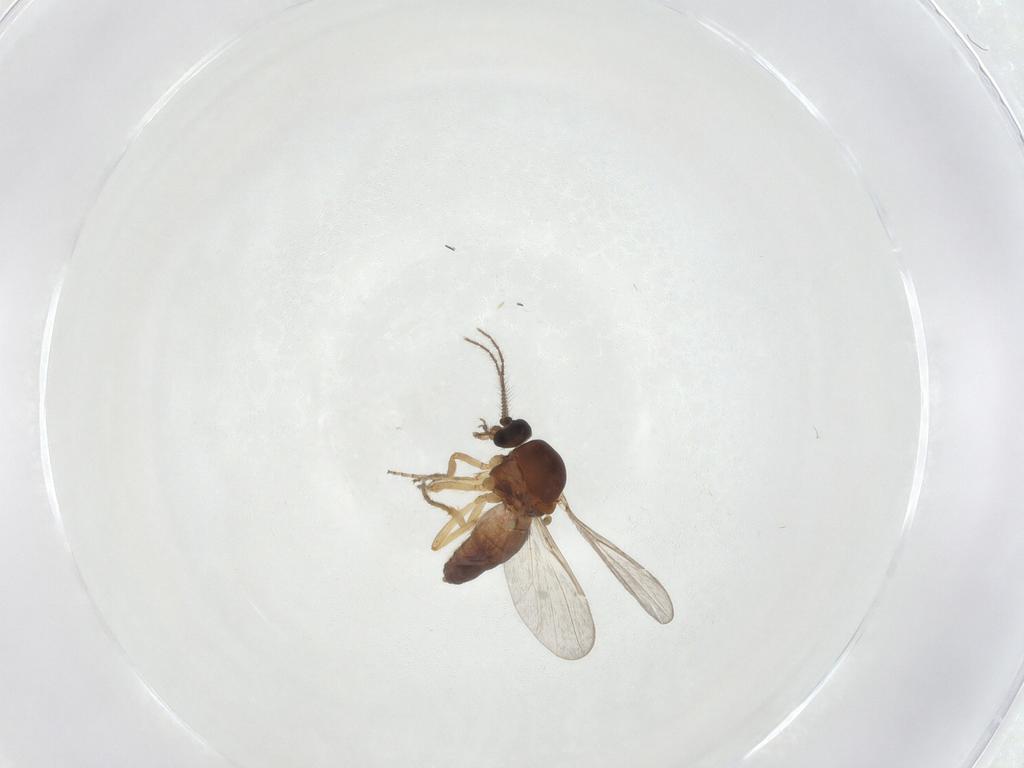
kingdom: Animalia
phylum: Arthropoda
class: Insecta
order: Diptera
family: Ceratopogonidae
